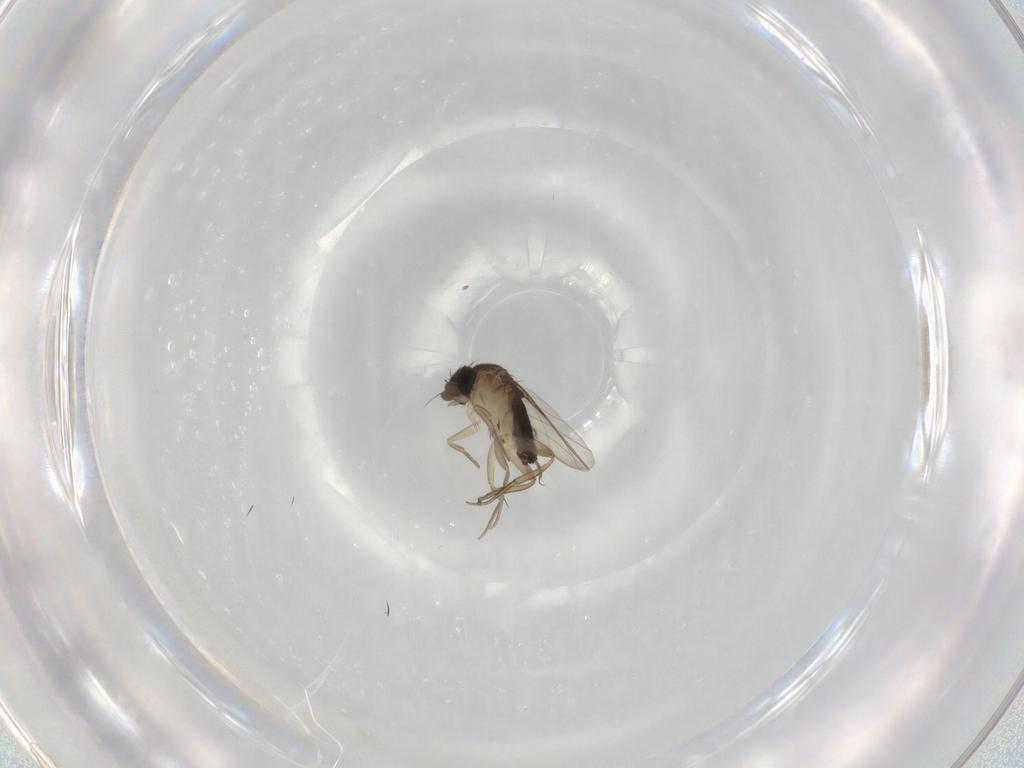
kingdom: Animalia
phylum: Arthropoda
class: Insecta
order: Diptera
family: Phoridae
